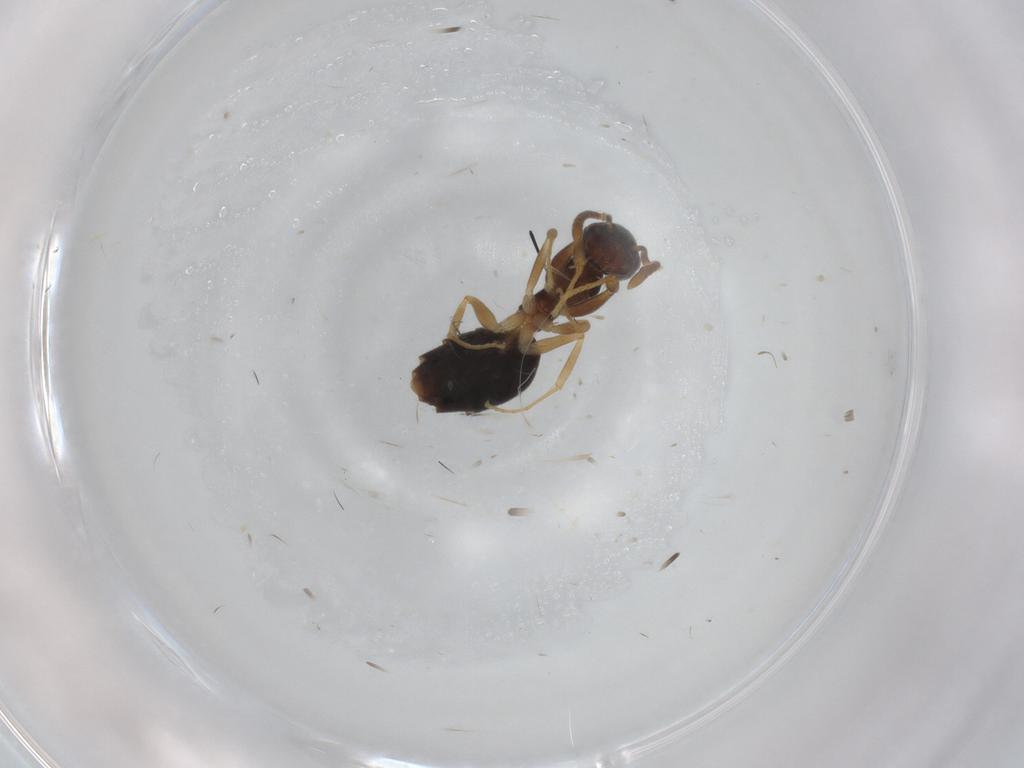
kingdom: Animalia
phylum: Arthropoda
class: Insecta
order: Hymenoptera
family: Formicidae
